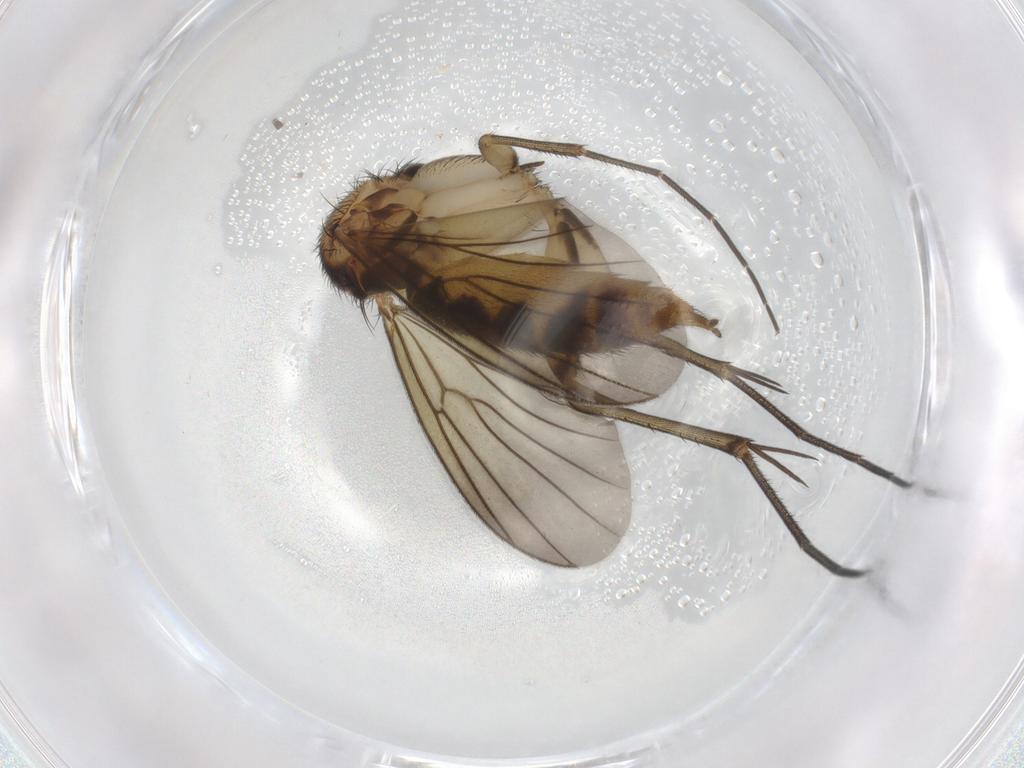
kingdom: Animalia
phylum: Arthropoda
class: Insecta
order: Diptera
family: Mycetophilidae
